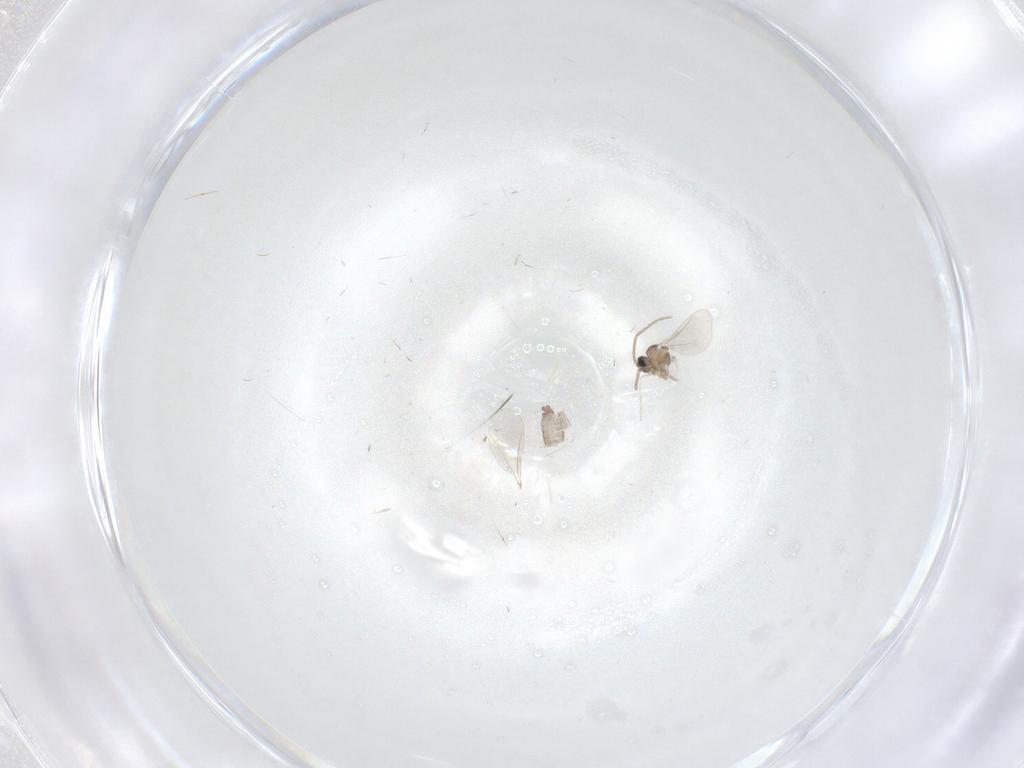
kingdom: Animalia
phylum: Arthropoda
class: Insecta
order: Diptera
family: Cecidomyiidae
